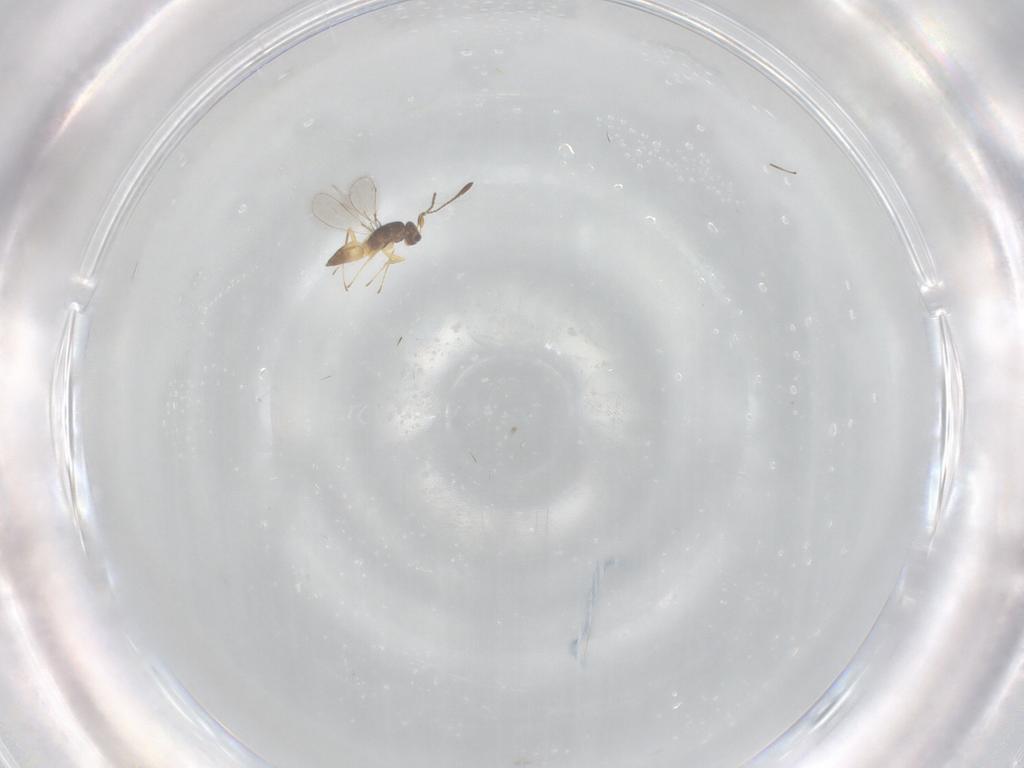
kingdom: Animalia
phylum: Arthropoda
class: Insecta
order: Hymenoptera
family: Mymaridae
